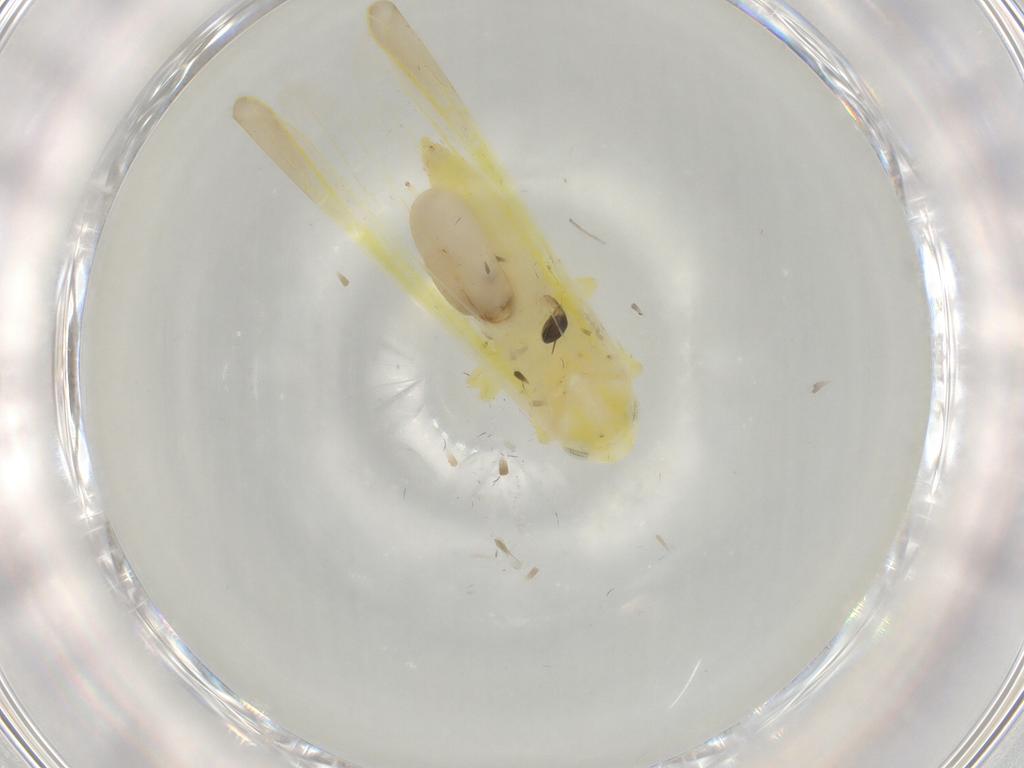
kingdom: Animalia
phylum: Arthropoda
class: Insecta
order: Hemiptera
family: Cicadellidae
